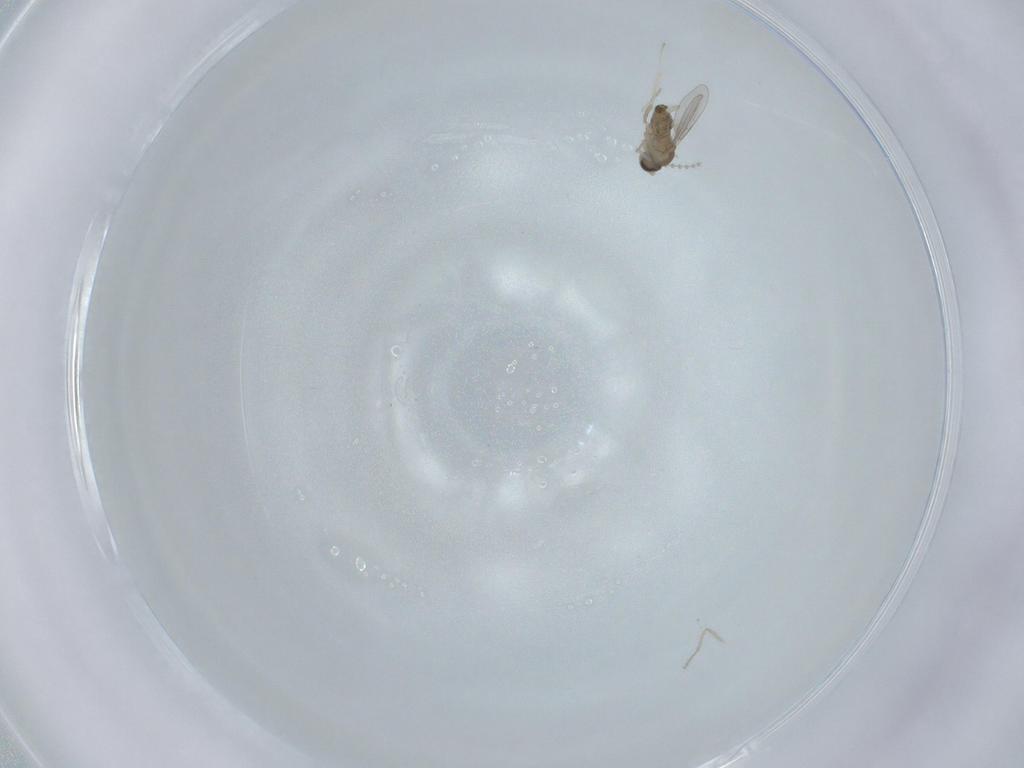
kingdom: Animalia
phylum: Arthropoda
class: Insecta
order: Diptera
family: Cecidomyiidae
